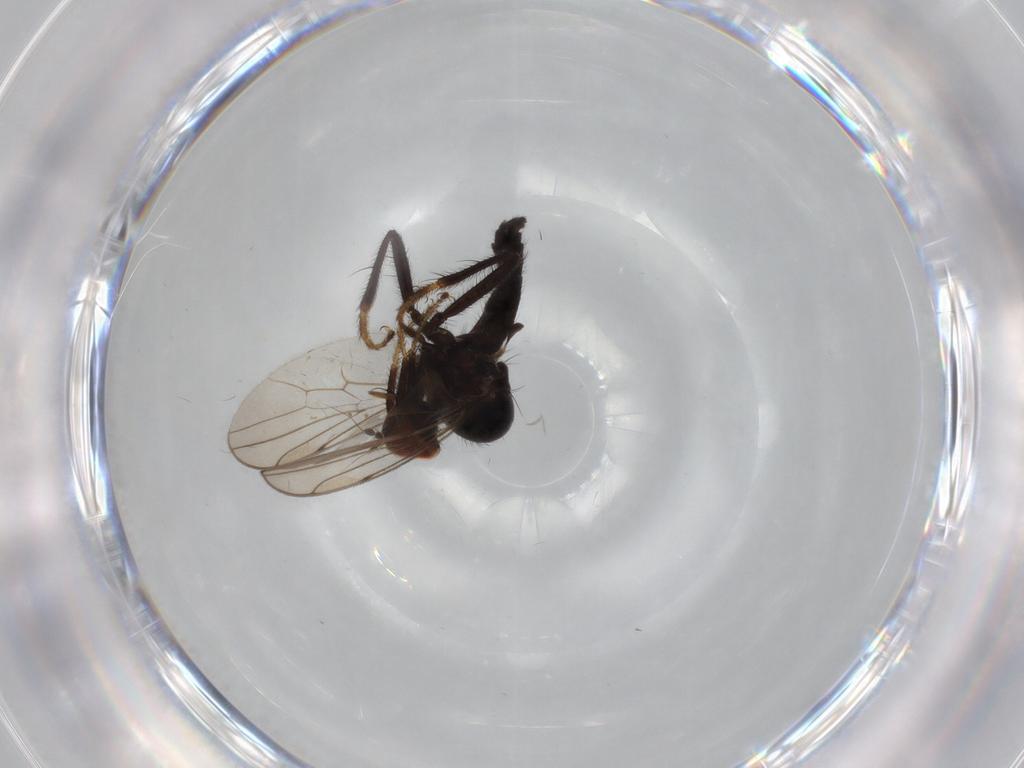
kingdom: Animalia
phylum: Arthropoda
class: Insecta
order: Diptera
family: Hybotidae
